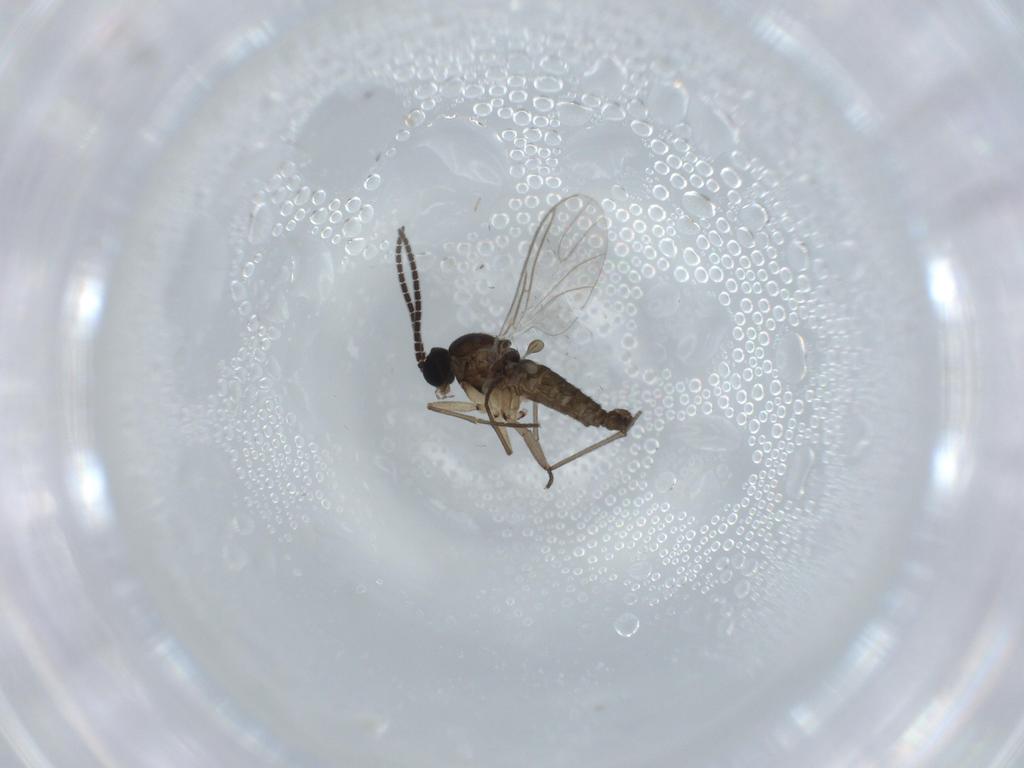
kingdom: Animalia
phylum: Arthropoda
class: Insecta
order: Diptera
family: Sciaridae
